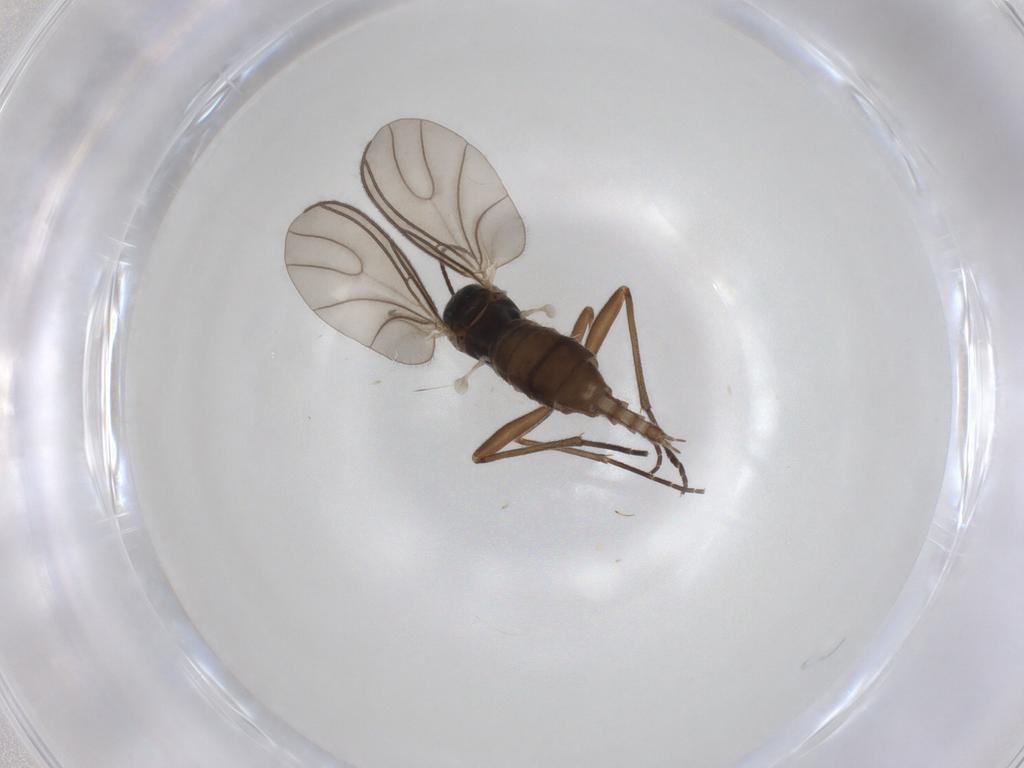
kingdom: Animalia
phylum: Arthropoda
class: Insecta
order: Diptera
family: Sciaridae
